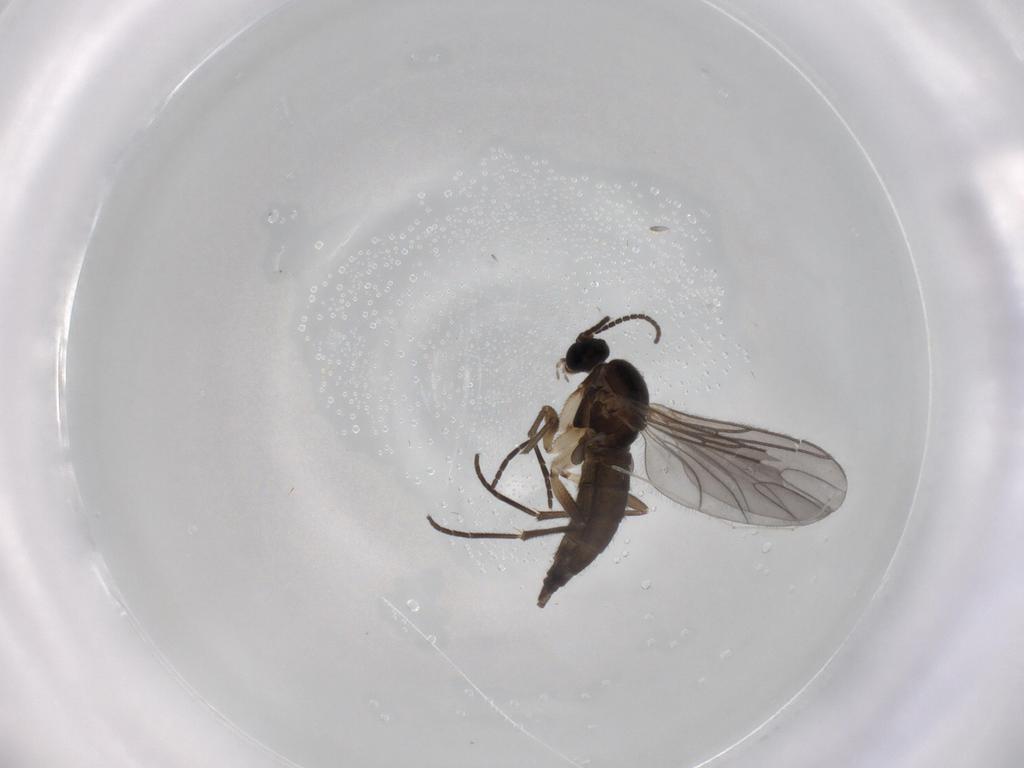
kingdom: Animalia
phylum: Arthropoda
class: Insecta
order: Diptera
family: Sciaridae
